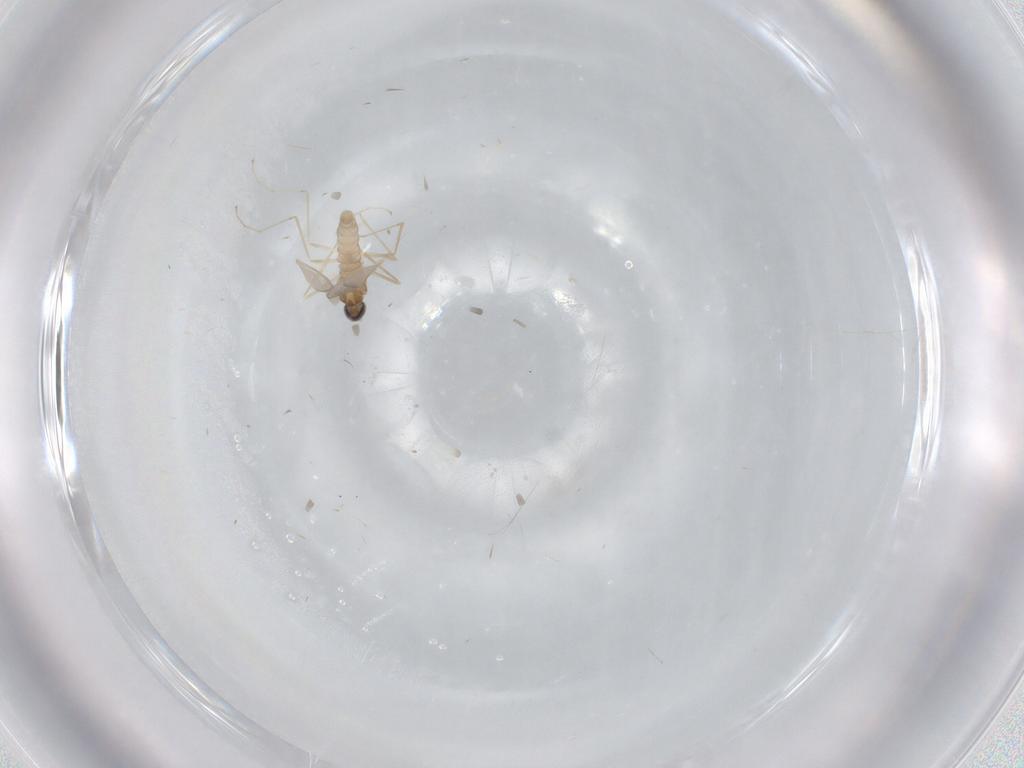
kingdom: Animalia
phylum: Arthropoda
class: Insecta
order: Diptera
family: Cecidomyiidae
